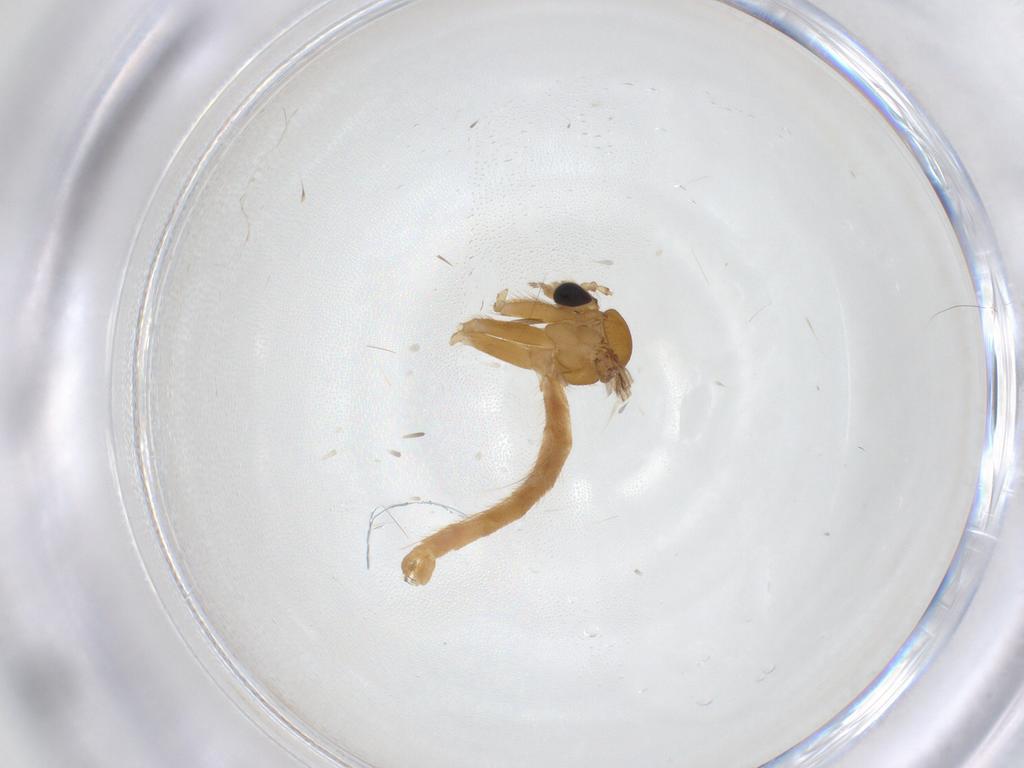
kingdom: Animalia
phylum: Arthropoda
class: Insecta
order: Diptera
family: Mycetophilidae
